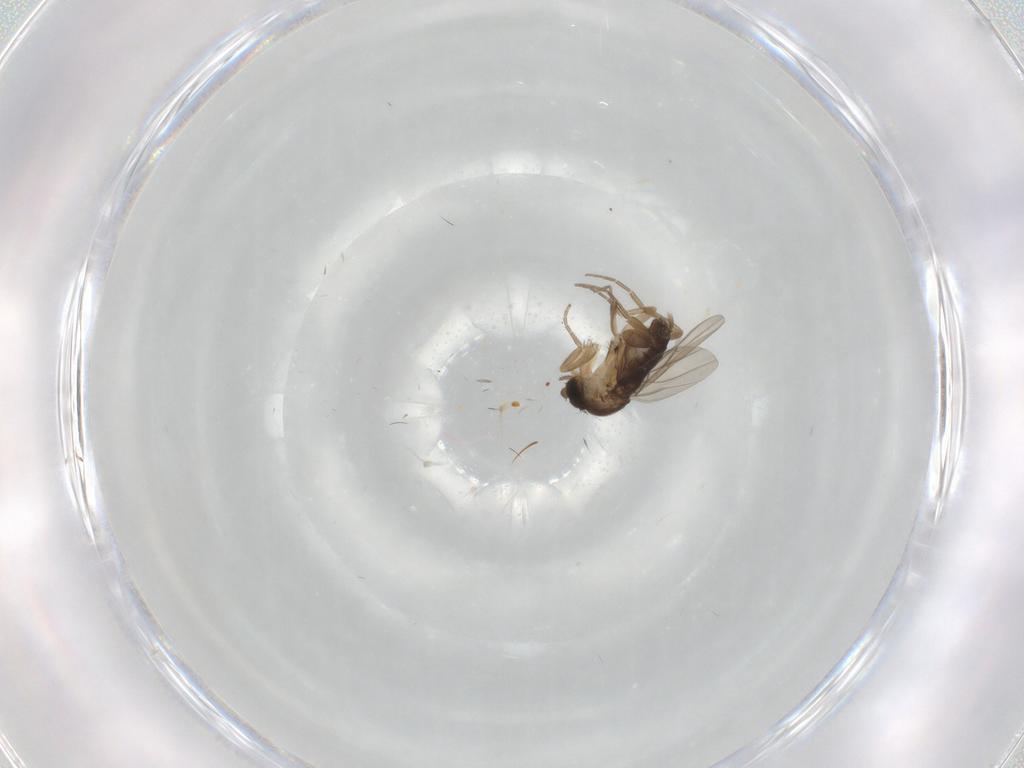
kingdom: Animalia
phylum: Arthropoda
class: Insecta
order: Diptera
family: Phoridae
